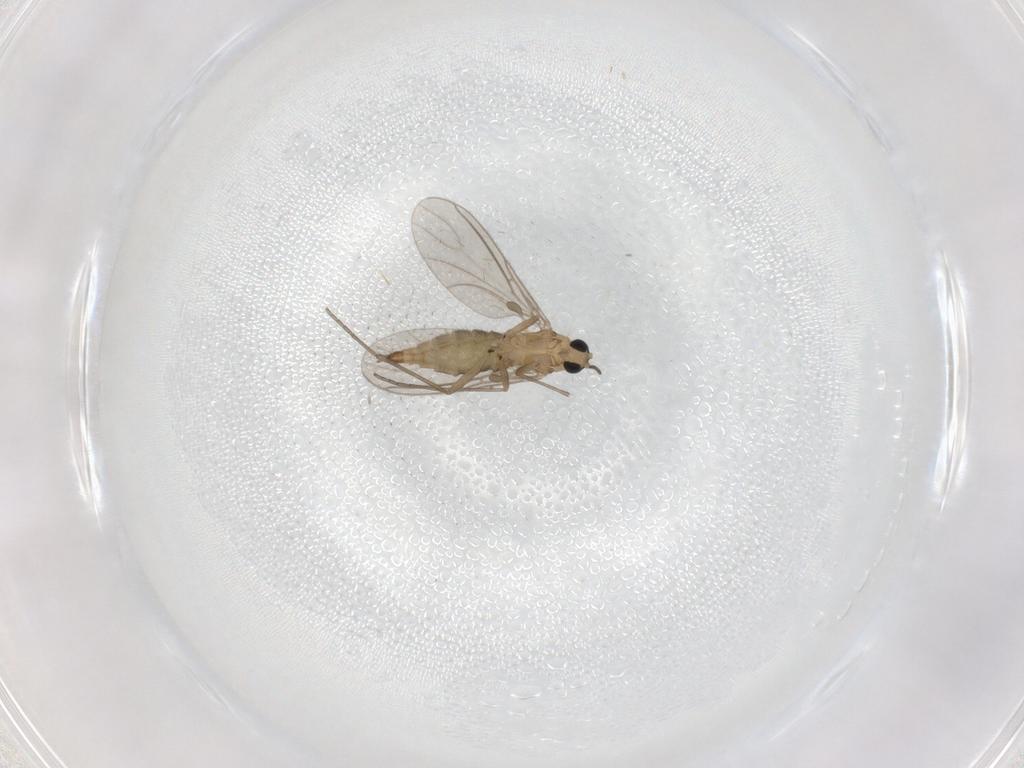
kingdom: Animalia
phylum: Arthropoda
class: Insecta
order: Diptera
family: Sciaridae
